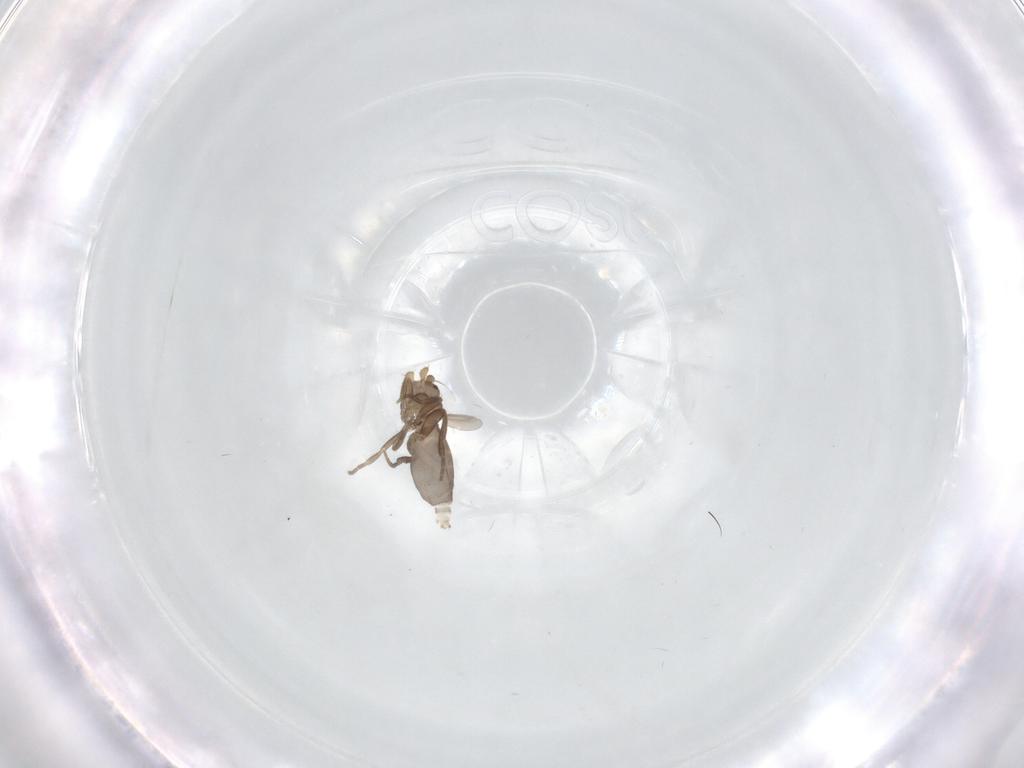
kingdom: Animalia
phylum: Arthropoda
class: Insecta
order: Diptera
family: Phoridae
